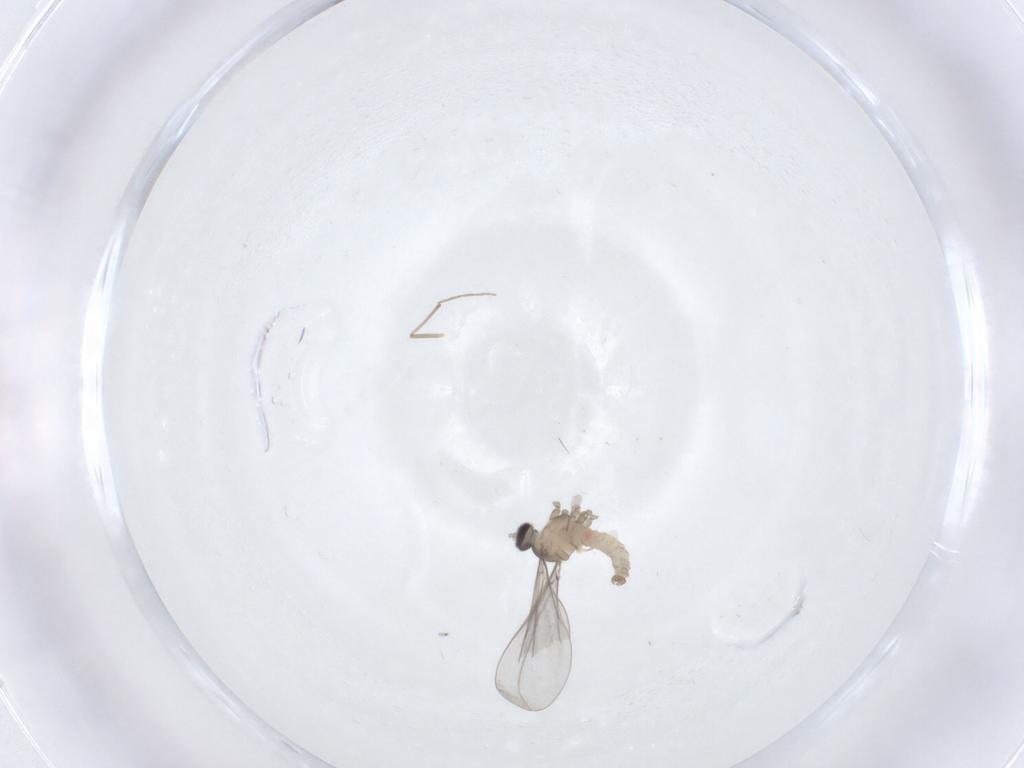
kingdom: Animalia
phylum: Arthropoda
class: Insecta
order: Diptera
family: Cecidomyiidae
